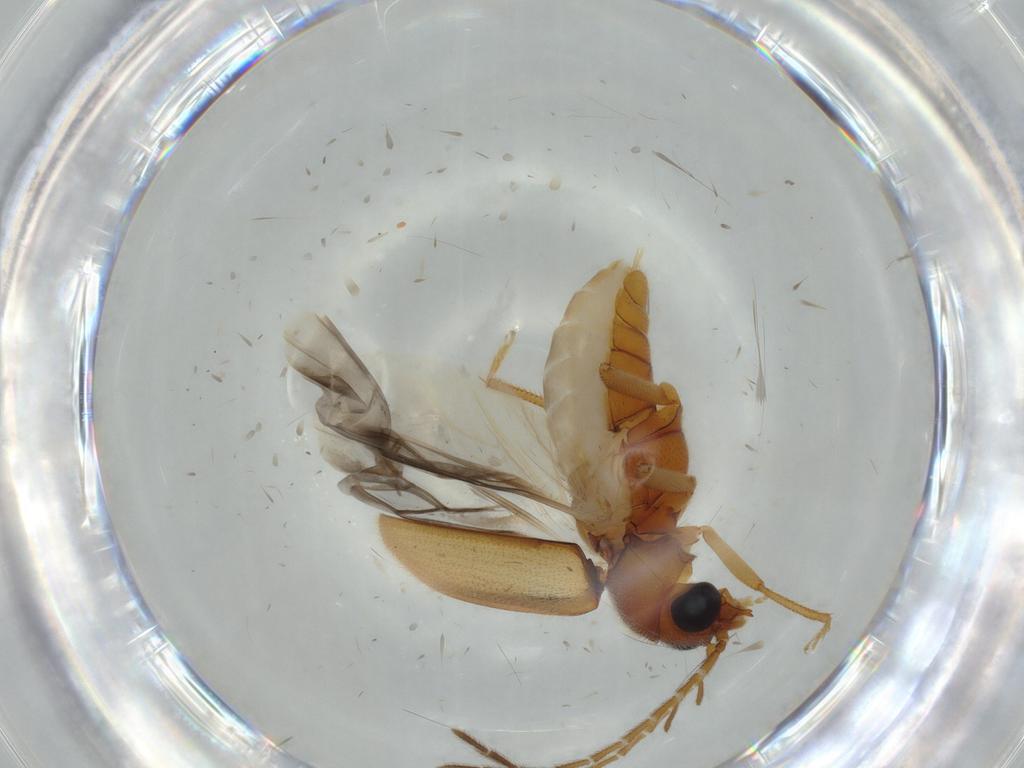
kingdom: Animalia
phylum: Arthropoda
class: Insecta
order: Coleoptera
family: Ptilodactylidae
